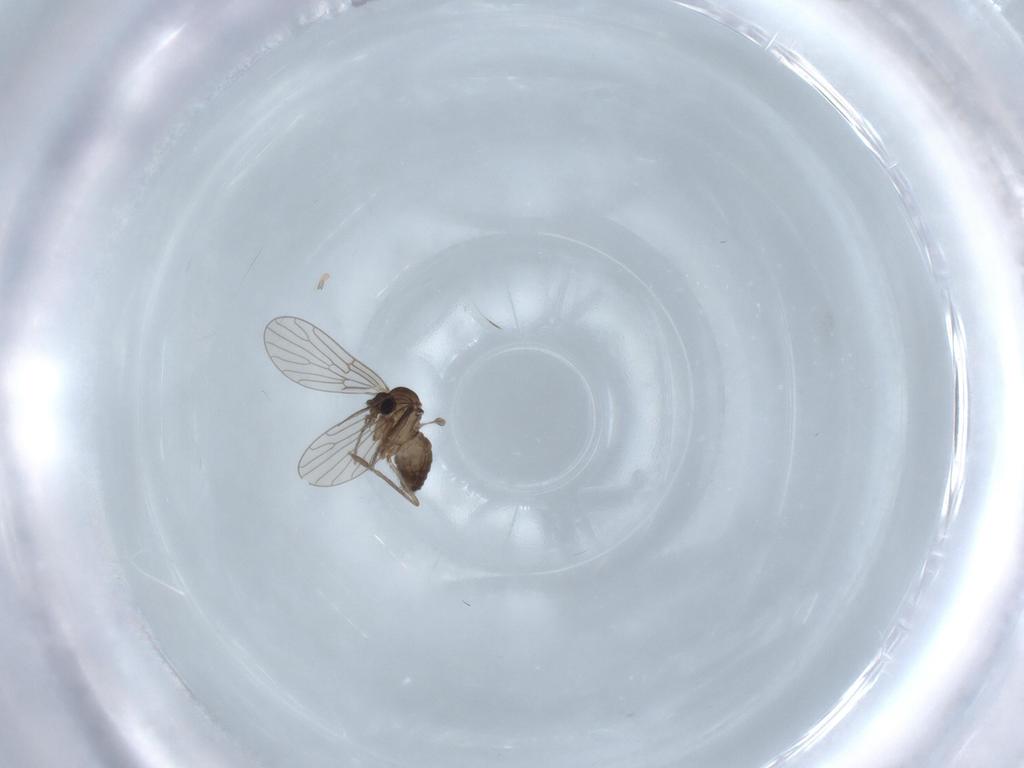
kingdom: Animalia
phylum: Arthropoda
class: Insecta
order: Diptera
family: Psychodidae
